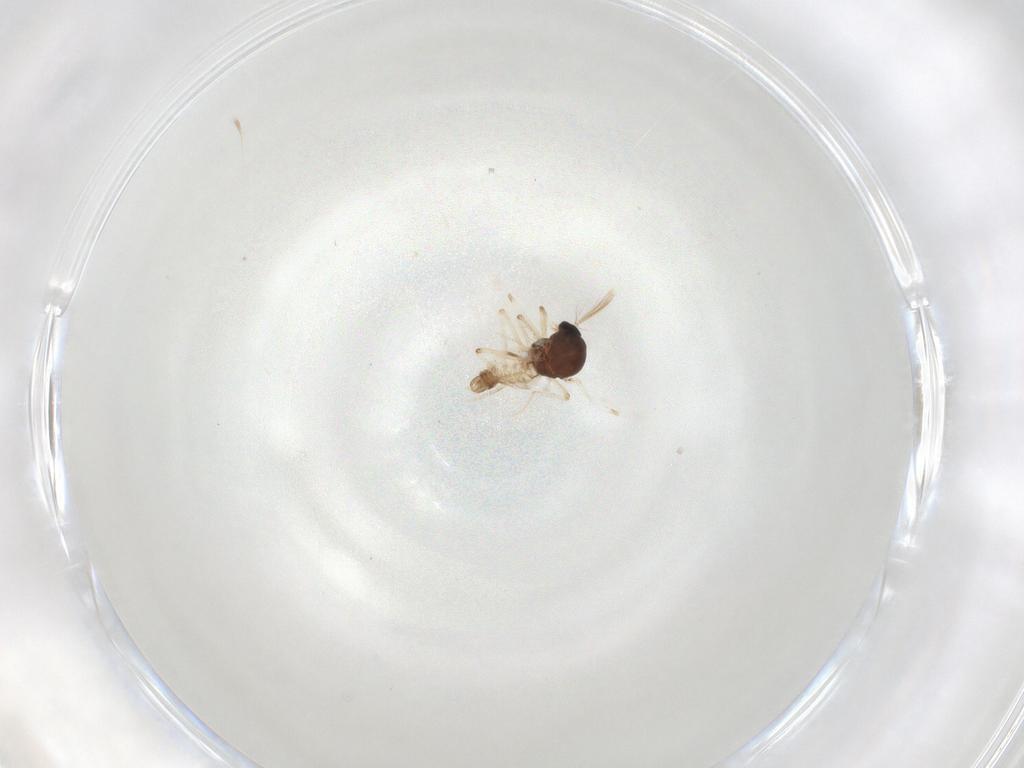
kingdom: Animalia
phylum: Arthropoda
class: Insecta
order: Diptera
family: Ceratopogonidae
